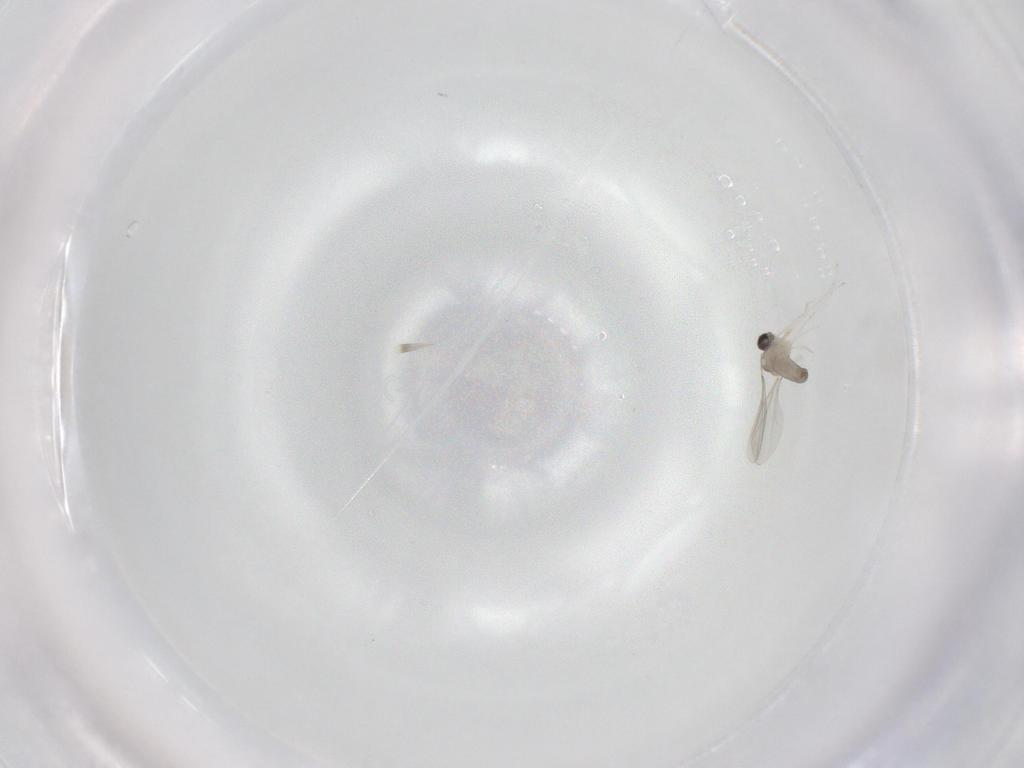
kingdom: Animalia
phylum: Arthropoda
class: Insecta
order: Diptera
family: Cecidomyiidae
